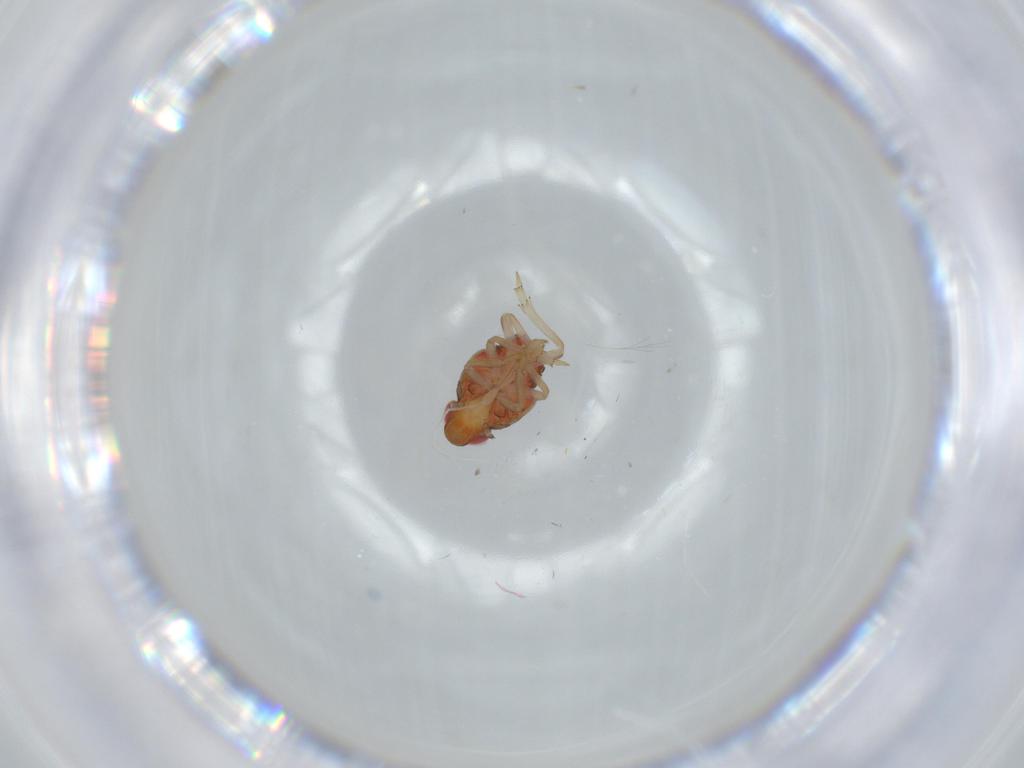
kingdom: Animalia
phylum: Arthropoda
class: Insecta
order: Hemiptera
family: Issidae
